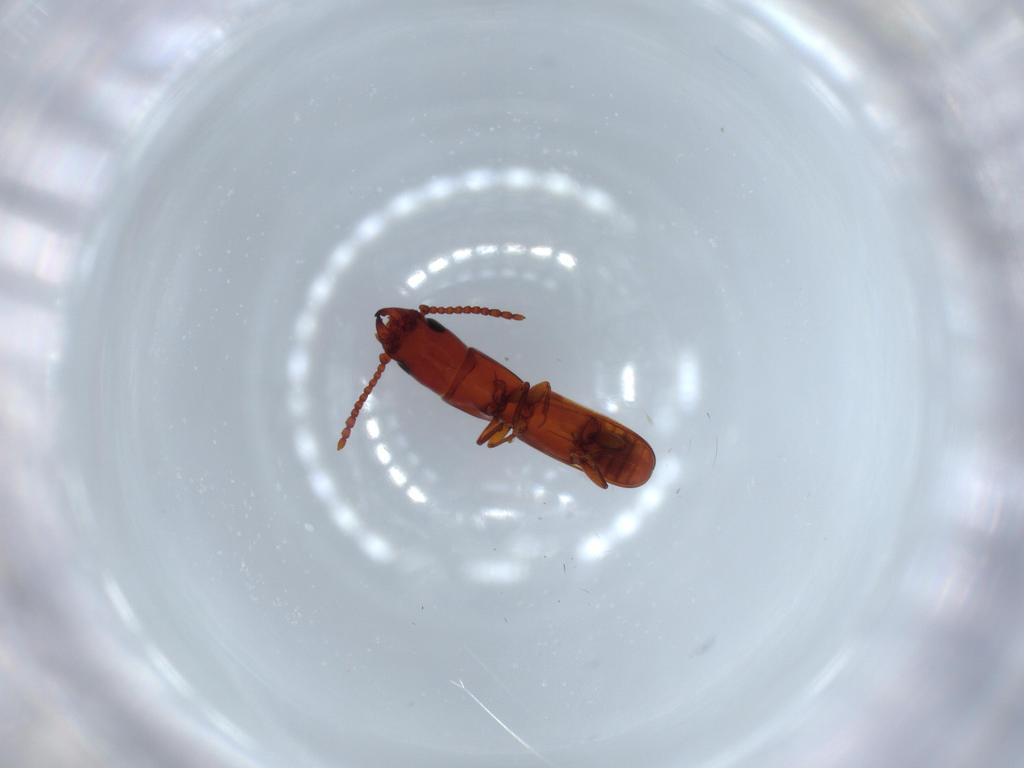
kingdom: Animalia
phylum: Arthropoda
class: Insecta
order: Coleoptera
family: Laemophloeidae
